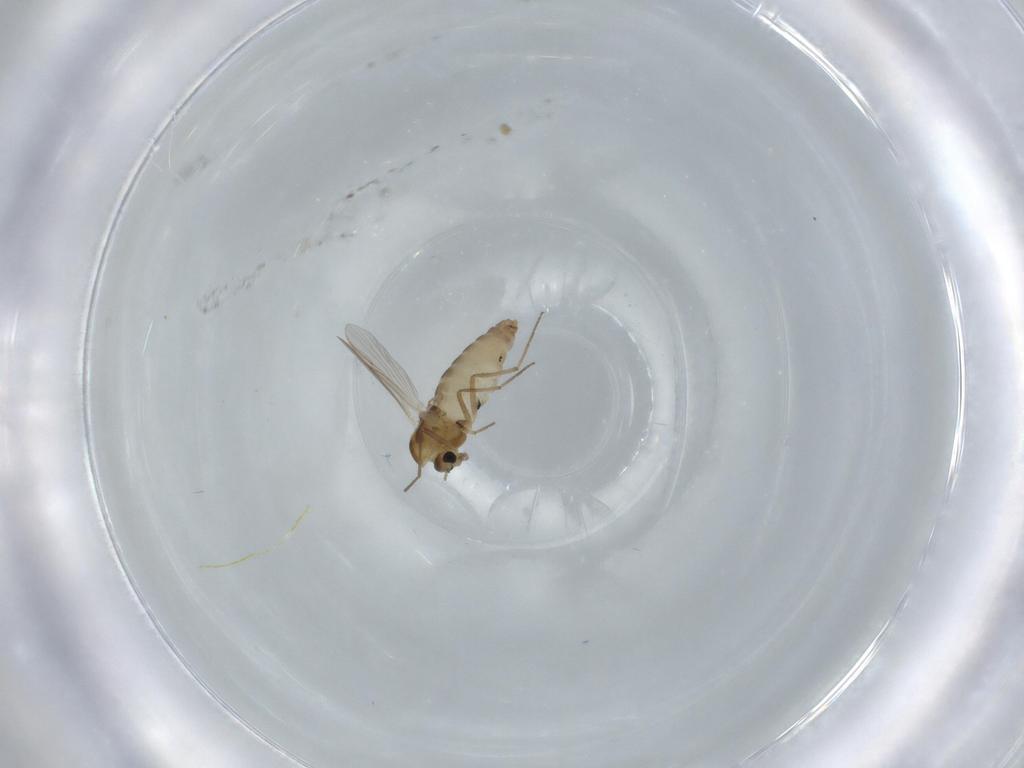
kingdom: Animalia
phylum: Arthropoda
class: Insecta
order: Diptera
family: Chironomidae
